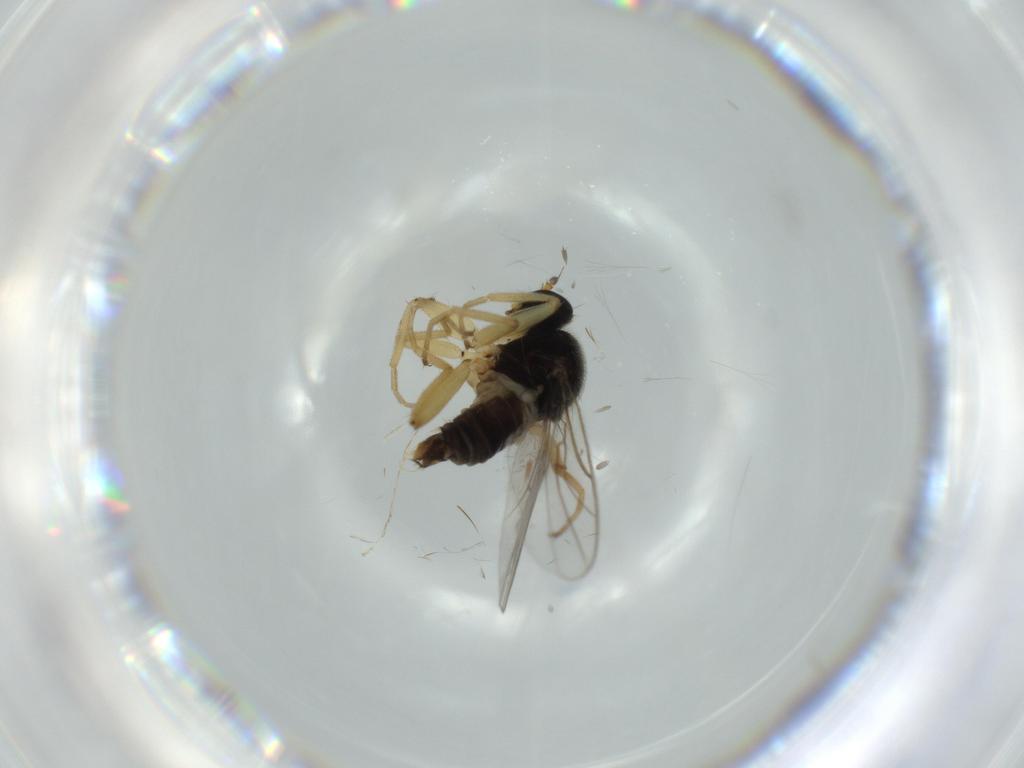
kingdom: Animalia
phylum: Arthropoda
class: Insecta
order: Diptera
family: Hybotidae
